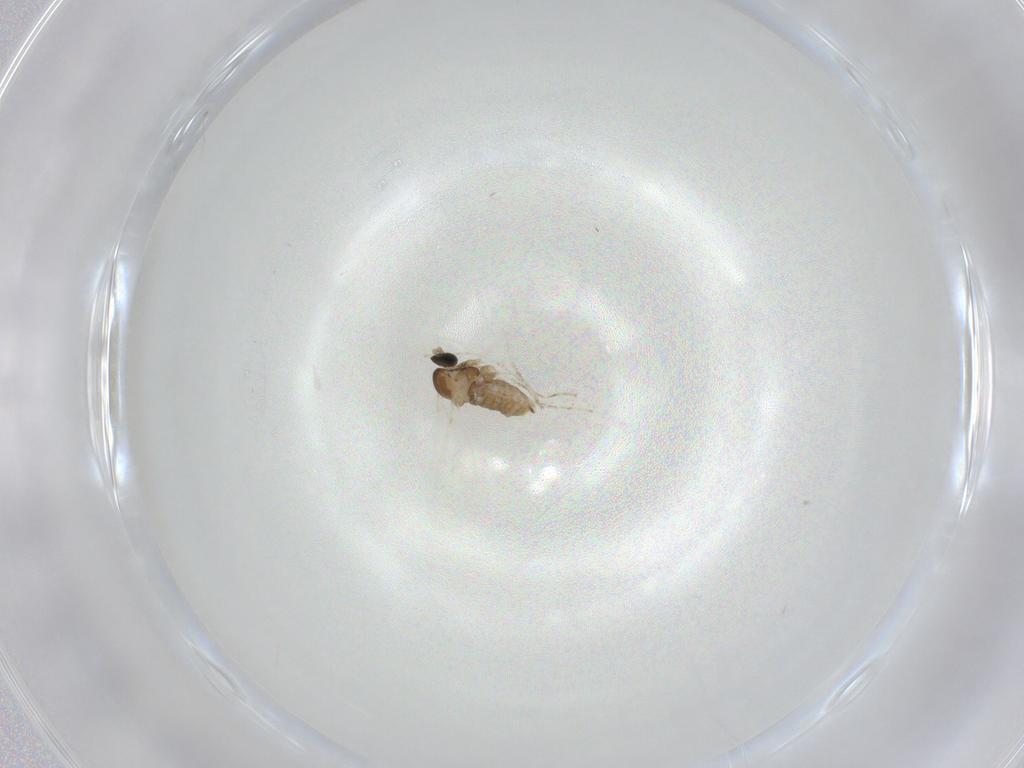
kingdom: Animalia
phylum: Arthropoda
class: Insecta
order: Diptera
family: Cecidomyiidae
